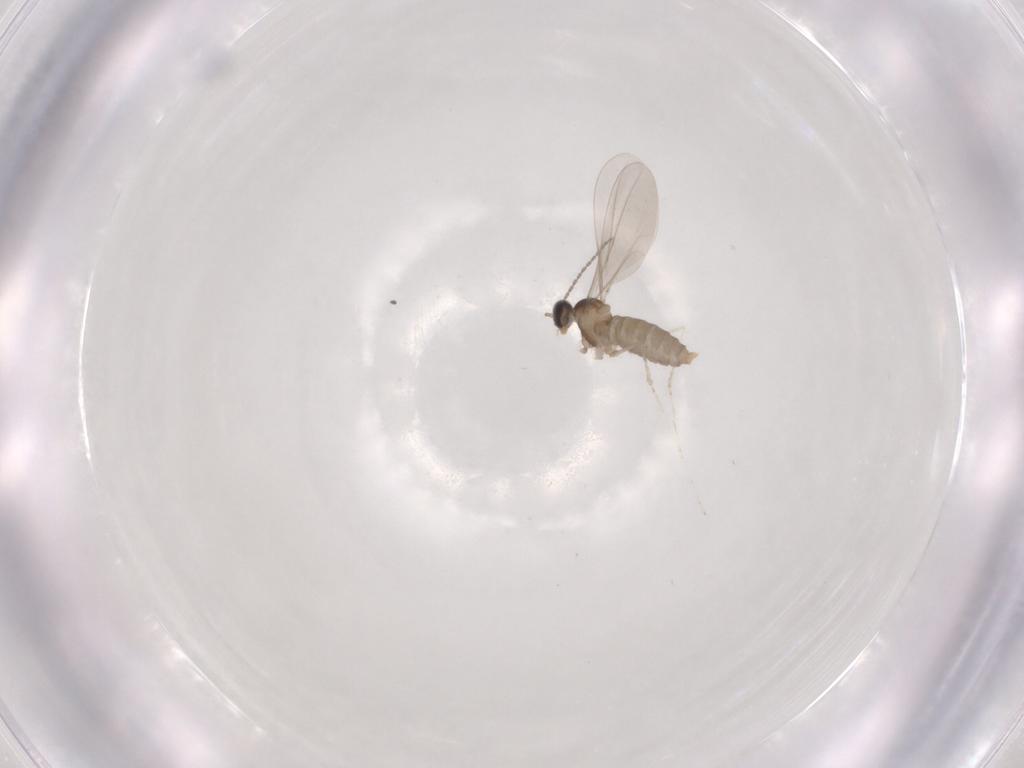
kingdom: Animalia
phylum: Arthropoda
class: Insecta
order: Diptera
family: Cecidomyiidae
